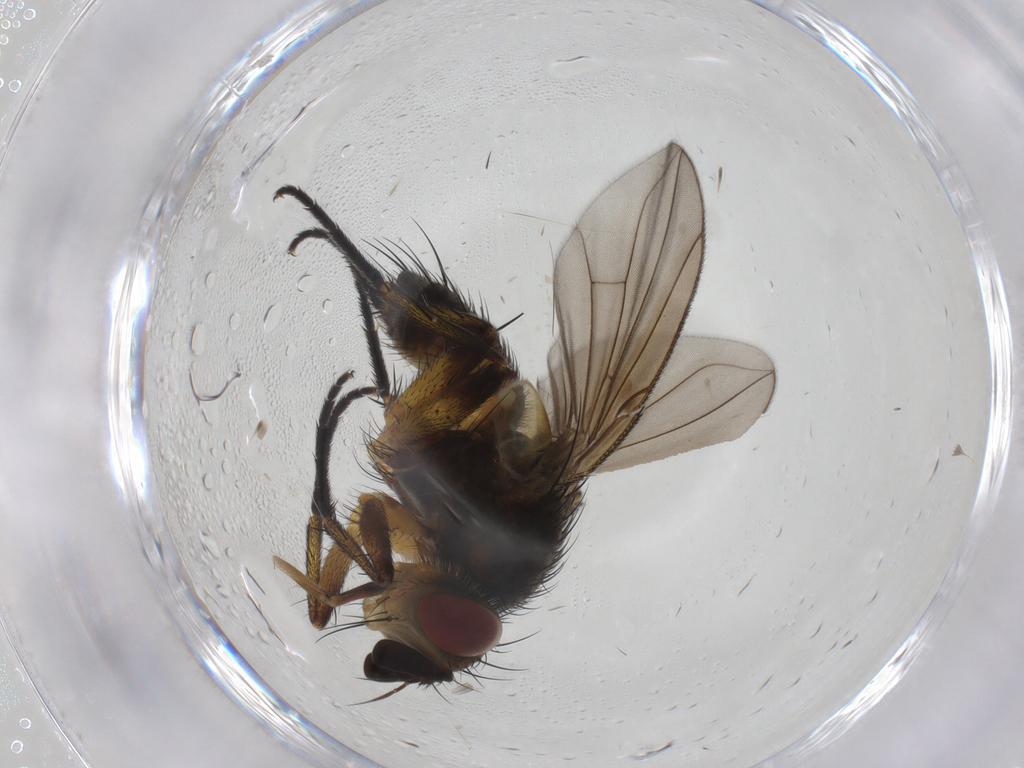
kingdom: Animalia
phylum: Arthropoda
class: Insecta
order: Diptera
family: Tachinidae
